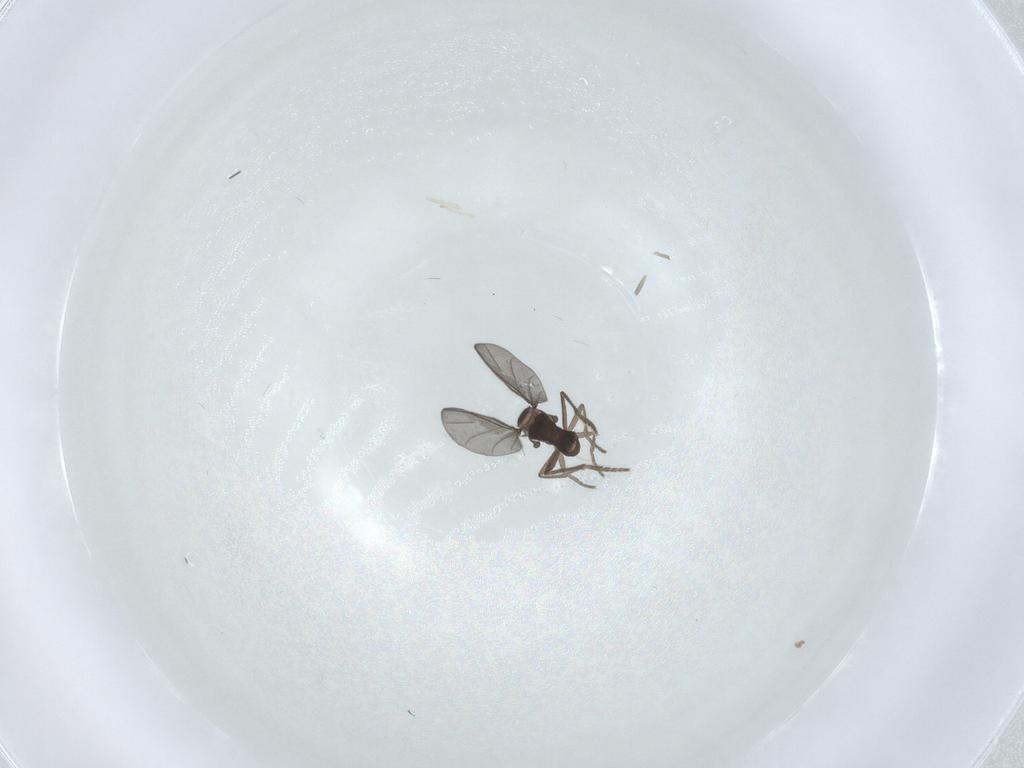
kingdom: Animalia
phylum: Arthropoda
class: Insecta
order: Diptera
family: Phoridae
